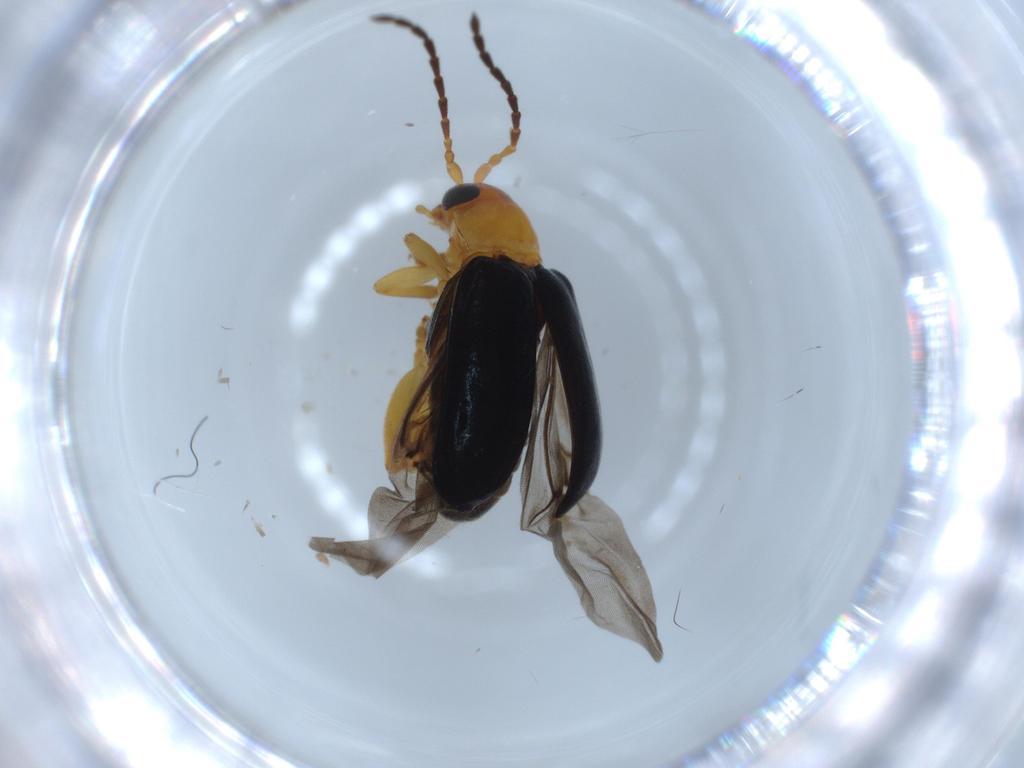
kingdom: Animalia
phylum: Arthropoda
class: Insecta
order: Coleoptera
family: Chrysomelidae
